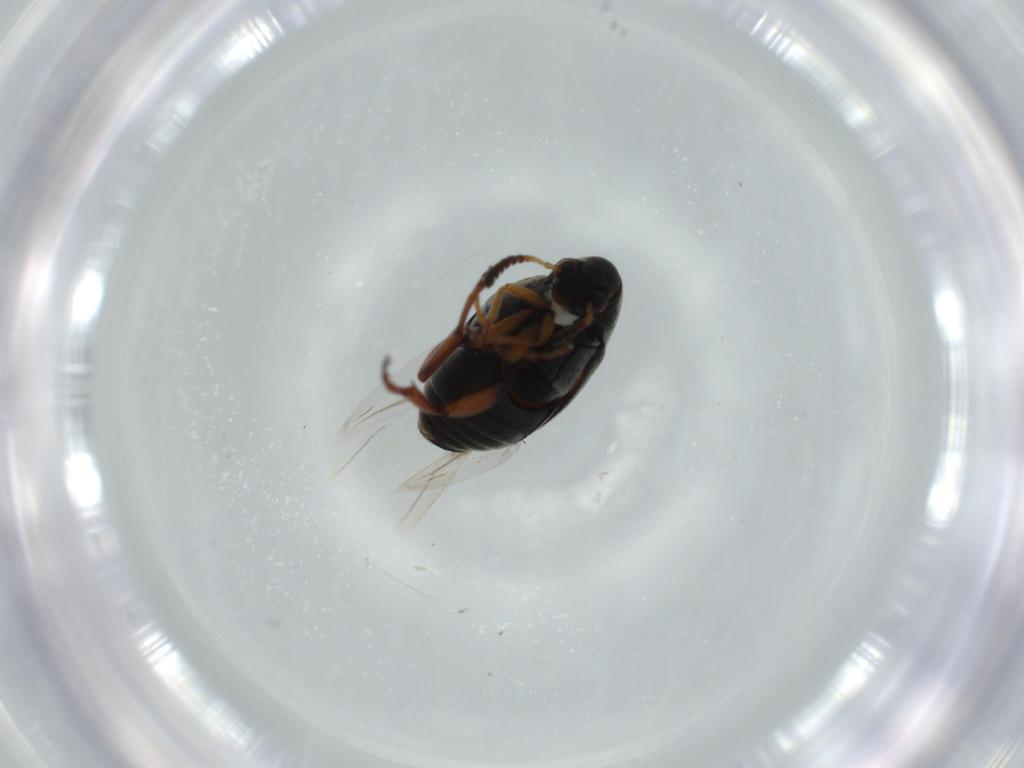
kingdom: Animalia
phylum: Arthropoda
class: Insecta
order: Coleoptera
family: Chrysomelidae
